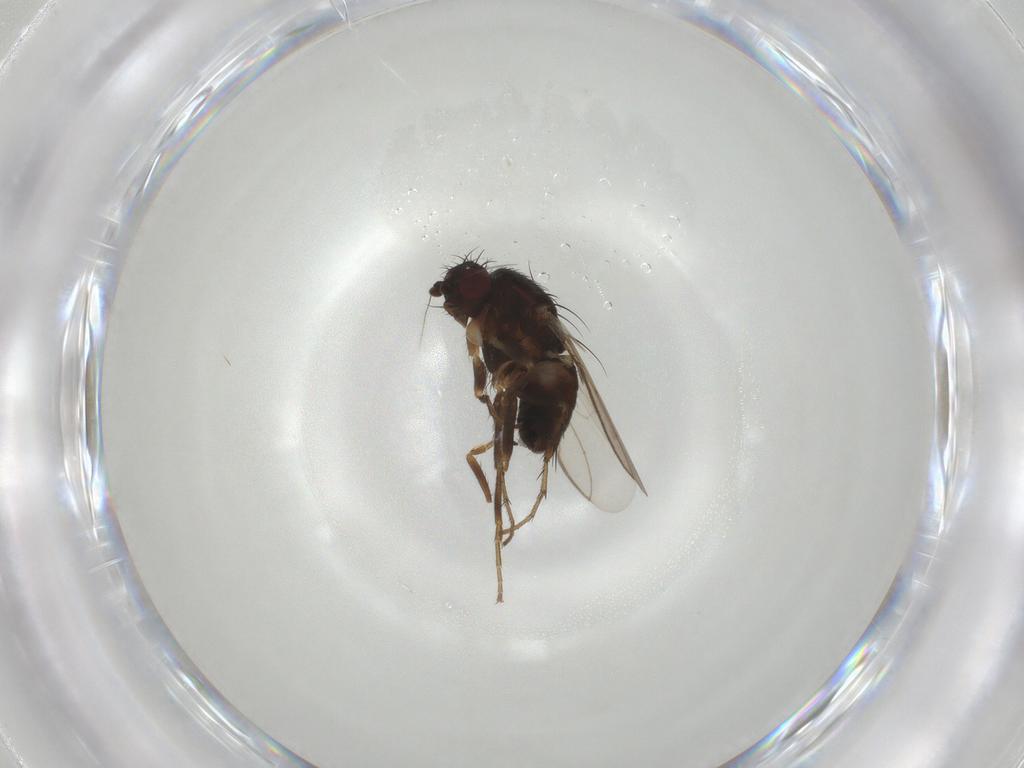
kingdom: Animalia
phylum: Arthropoda
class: Insecta
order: Diptera
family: Sphaeroceridae
